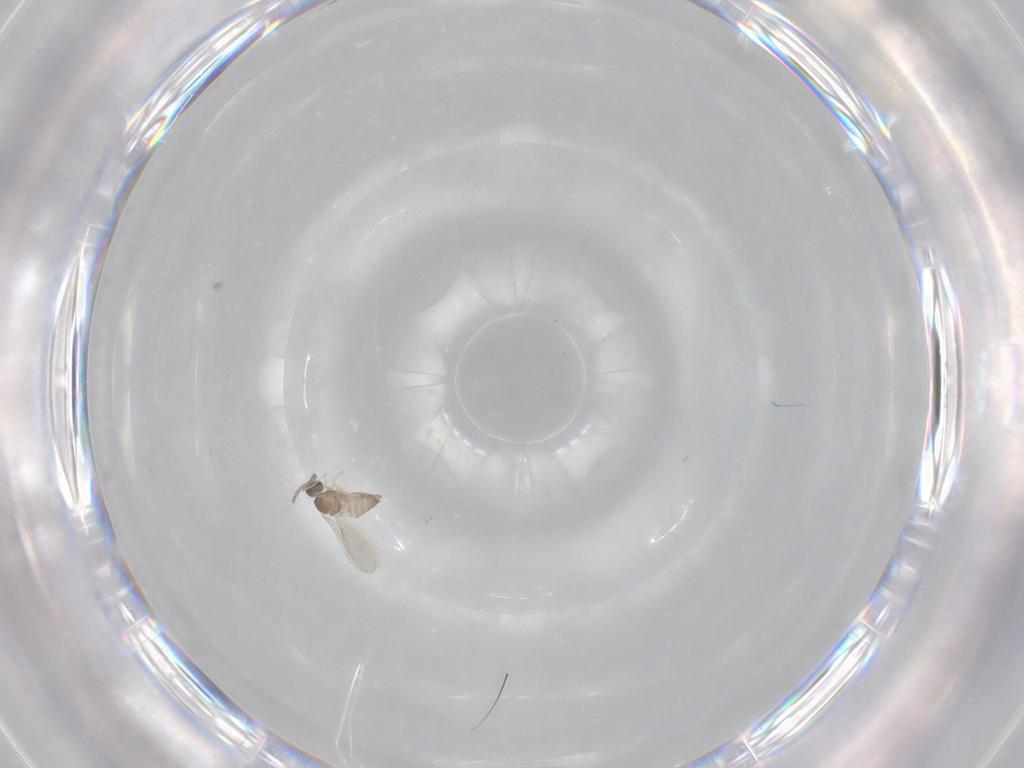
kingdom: Animalia
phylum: Arthropoda
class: Insecta
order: Diptera
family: Cecidomyiidae
